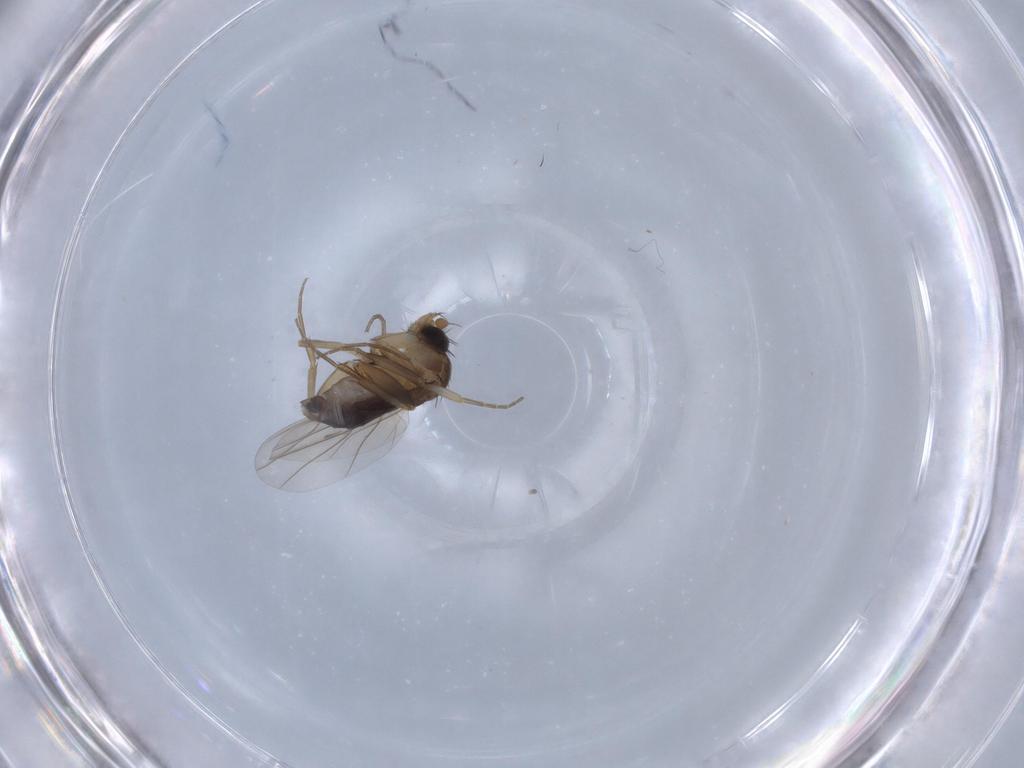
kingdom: Animalia
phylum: Arthropoda
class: Insecta
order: Diptera
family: Phoridae
